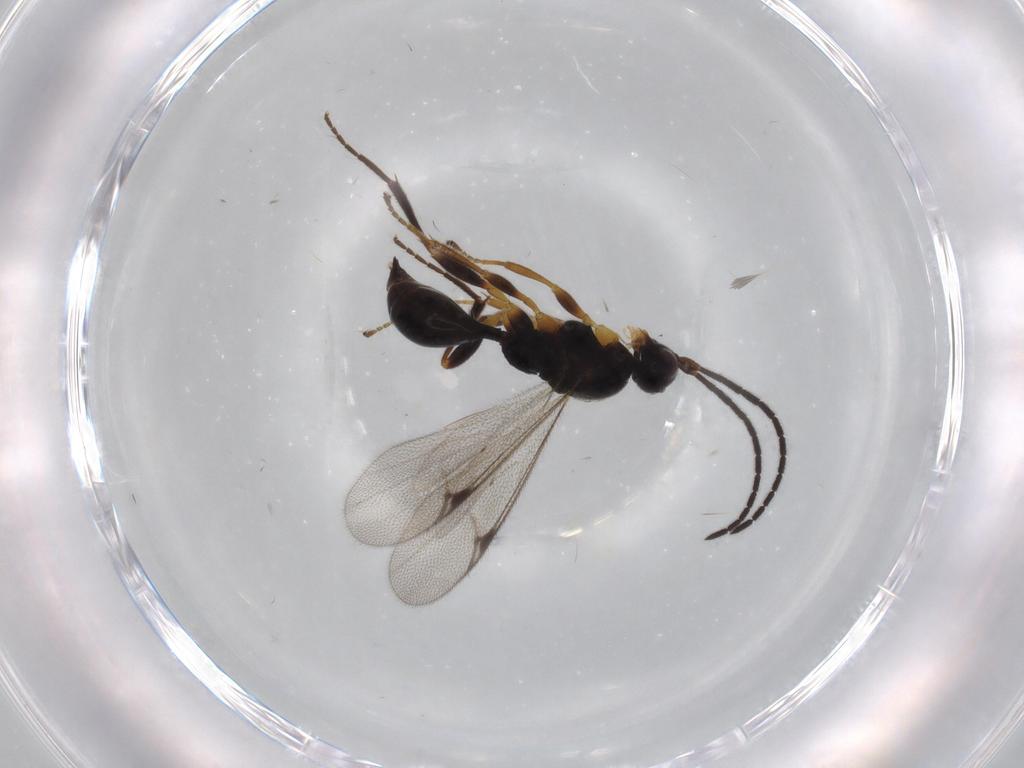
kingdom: Animalia
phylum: Arthropoda
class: Insecta
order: Hymenoptera
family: Proctotrupidae
